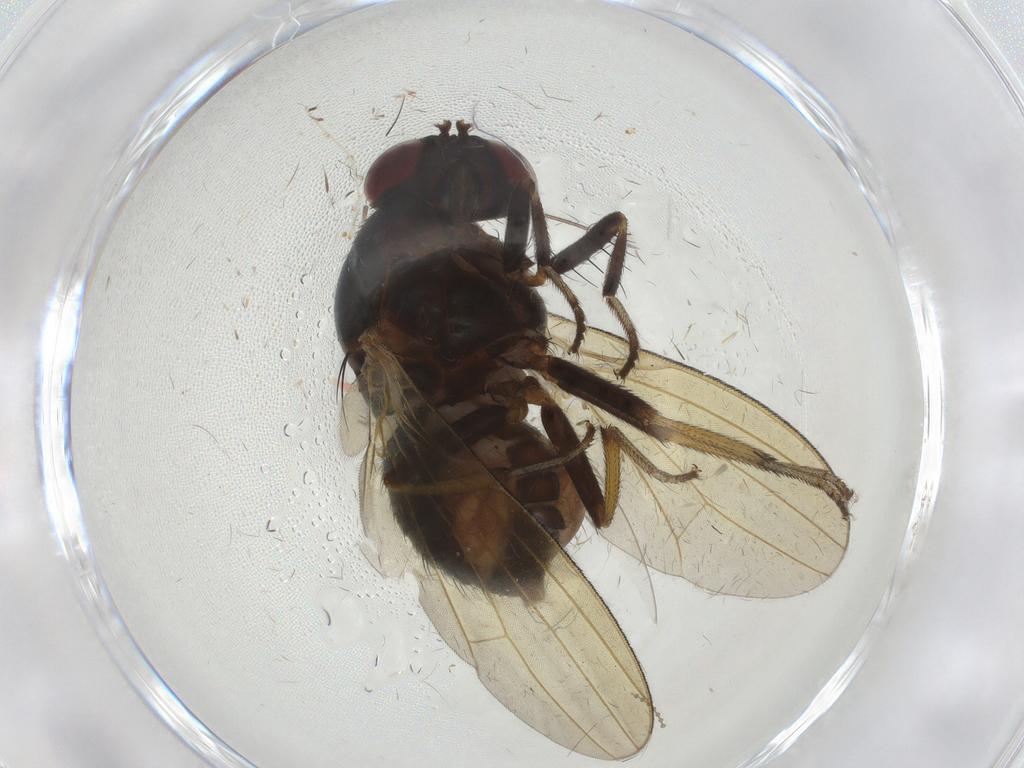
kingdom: Animalia
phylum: Arthropoda
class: Insecta
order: Diptera
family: Cecidomyiidae
